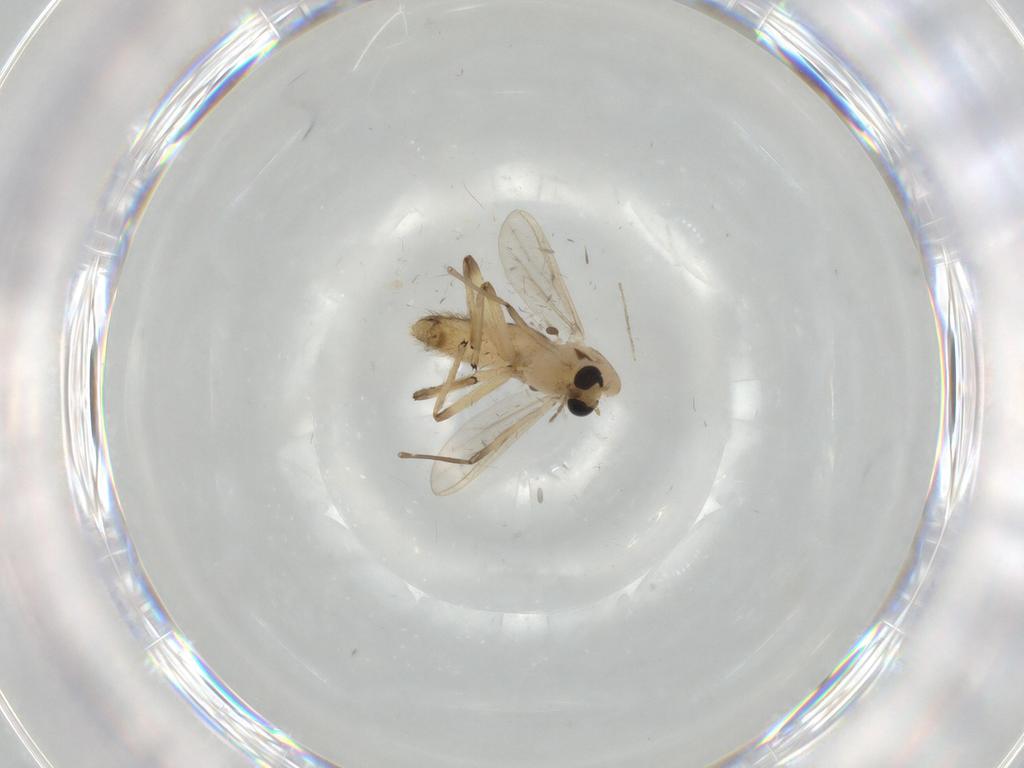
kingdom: Animalia
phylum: Arthropoda
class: Insecta
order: Diptera
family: Chironomidae
